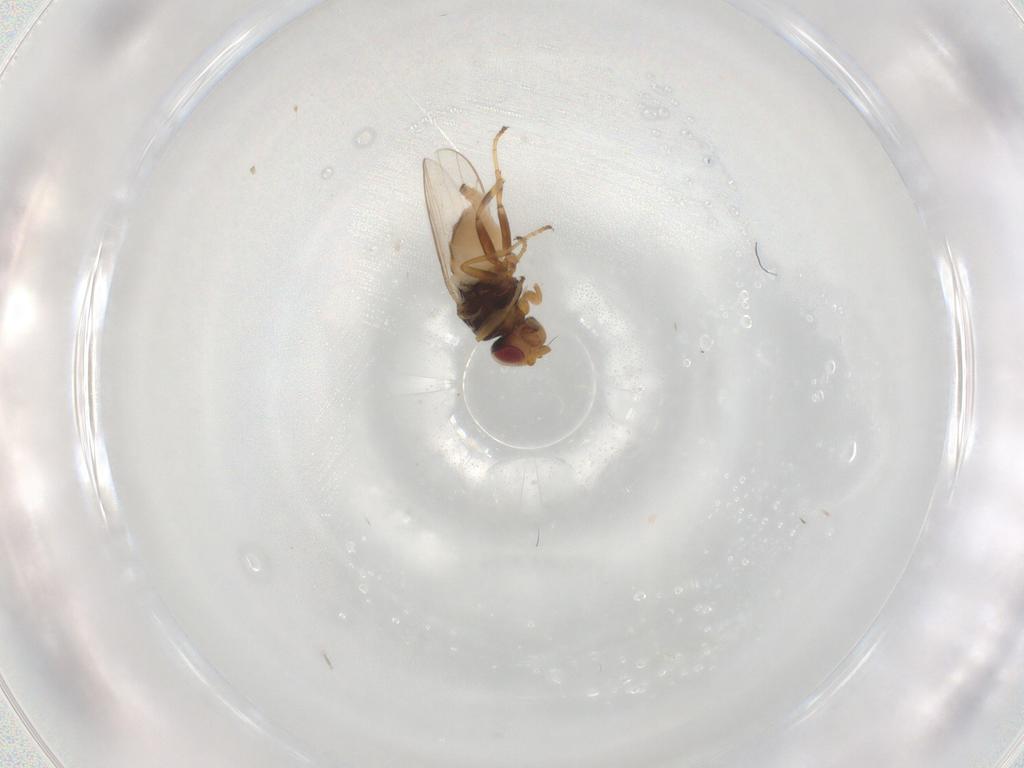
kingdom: Animalia
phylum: Arthropoda
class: Insecta
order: Diptera
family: Chloropidae
